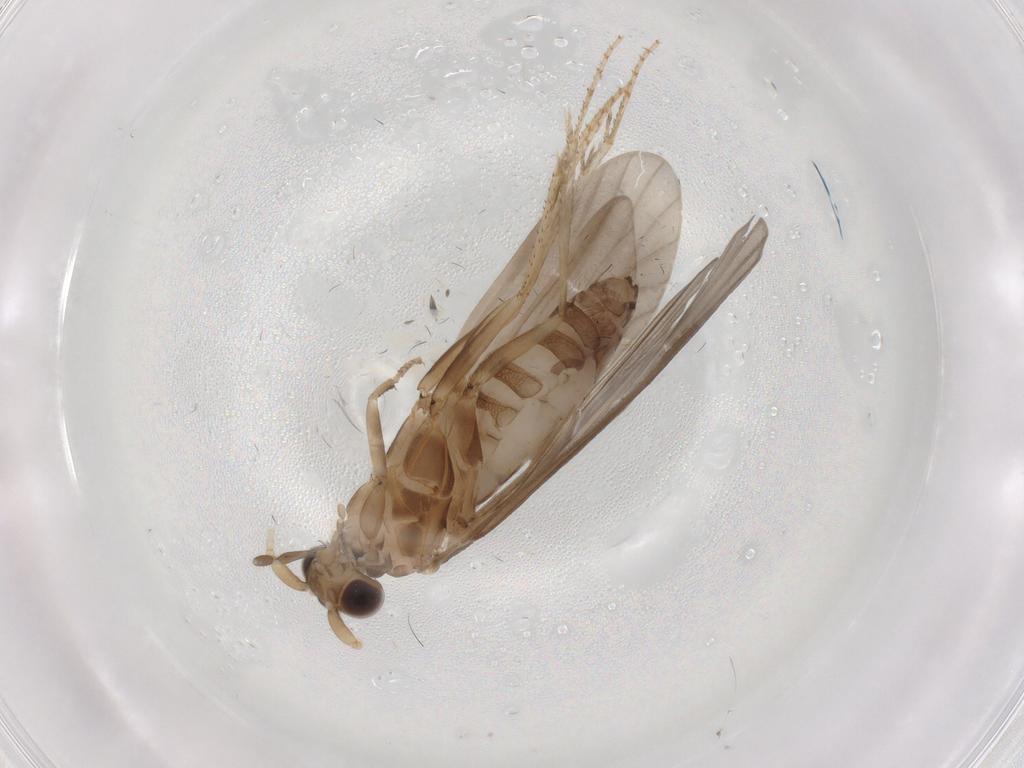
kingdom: Animalia
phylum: Arthropoda
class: Insecta
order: Trichoptera
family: Helicopsychidae
